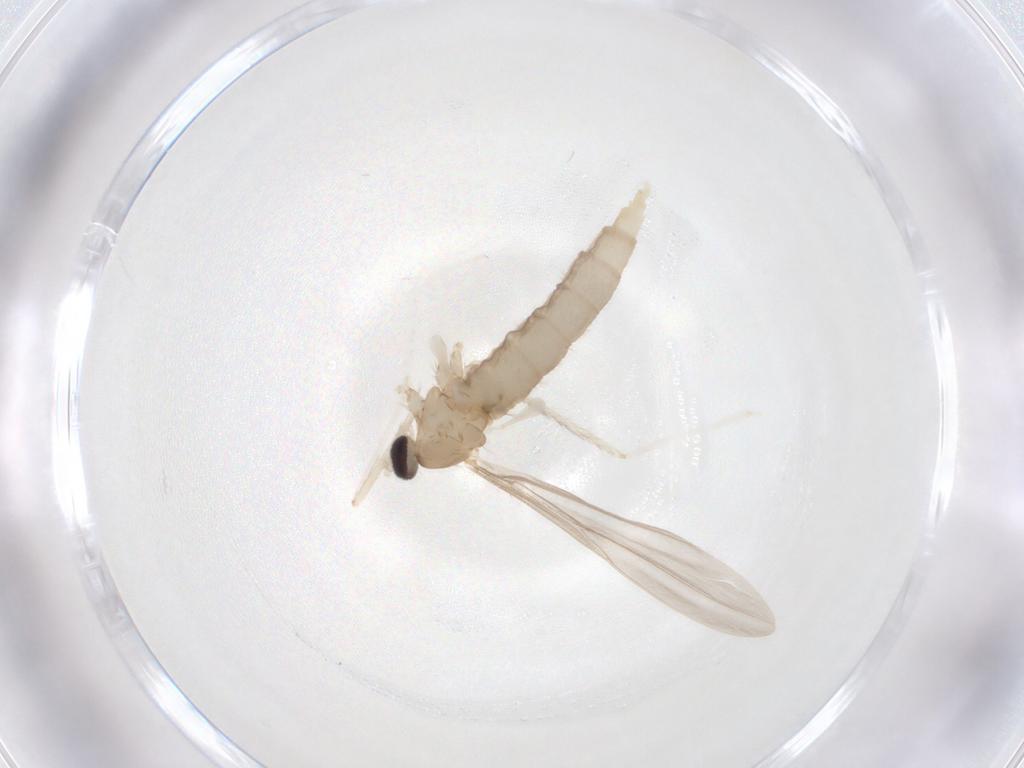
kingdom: Animalia
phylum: Arthropoda
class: Insecta
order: Diptera
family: Cecidomyiidae
